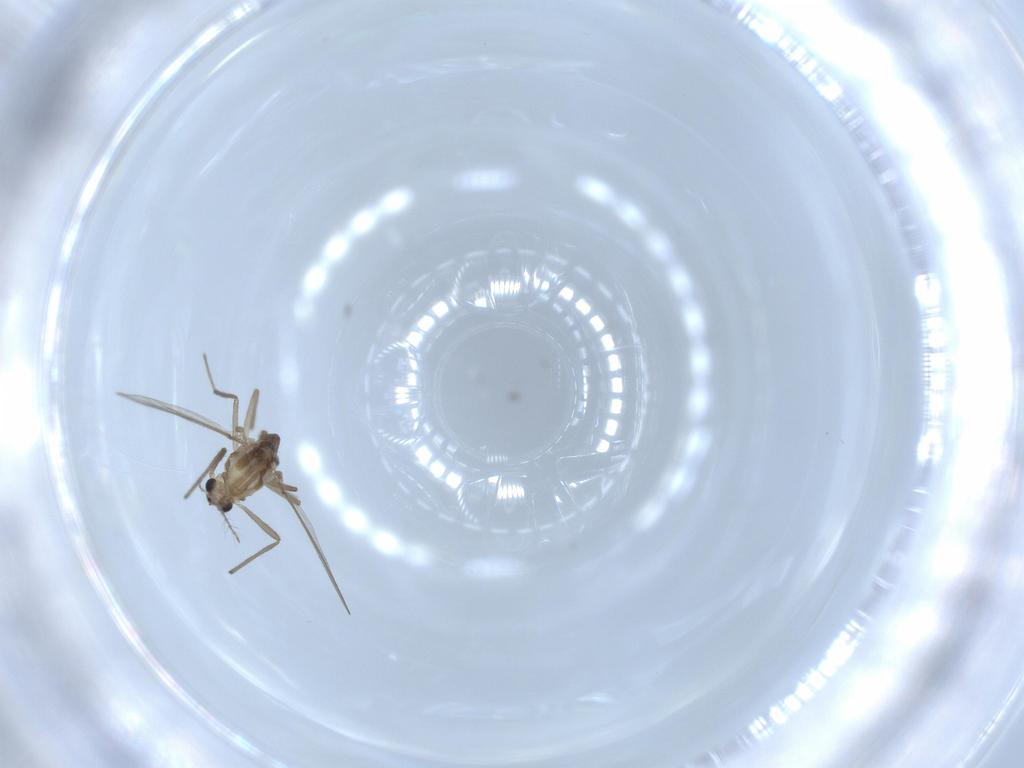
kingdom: Animalia
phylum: Arthropoda
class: Insecta
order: Diptera
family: Chironomidae
